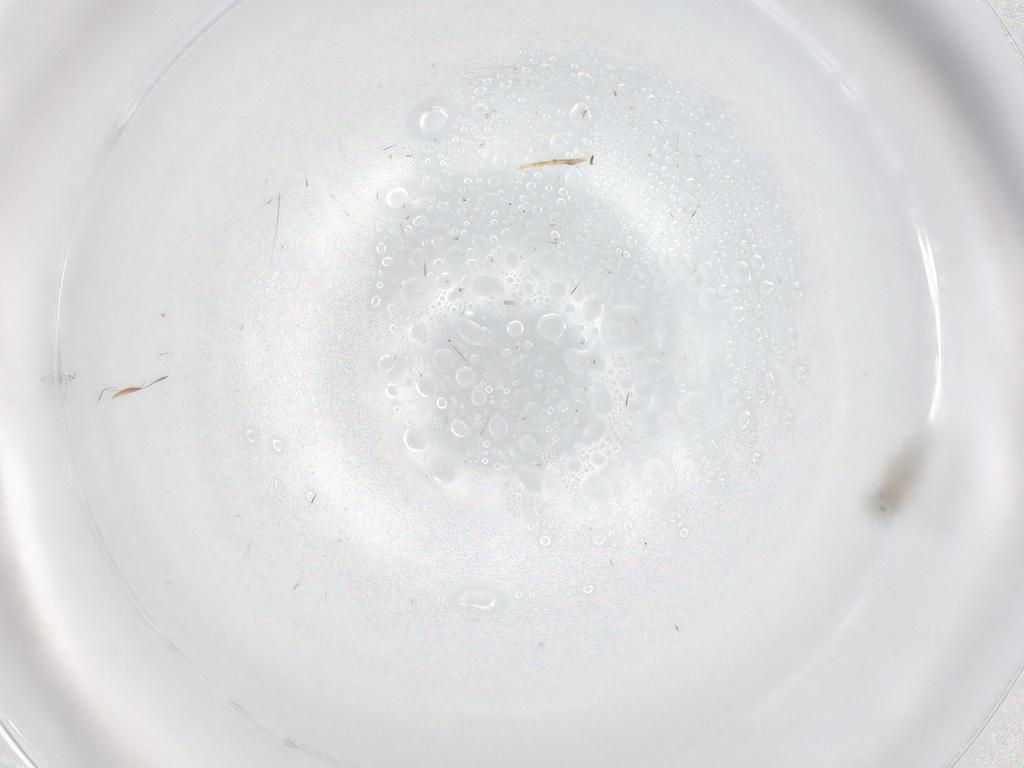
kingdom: Animalia
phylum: Arthropoda
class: Insecta
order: Diptera
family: Cecidomyiidae
